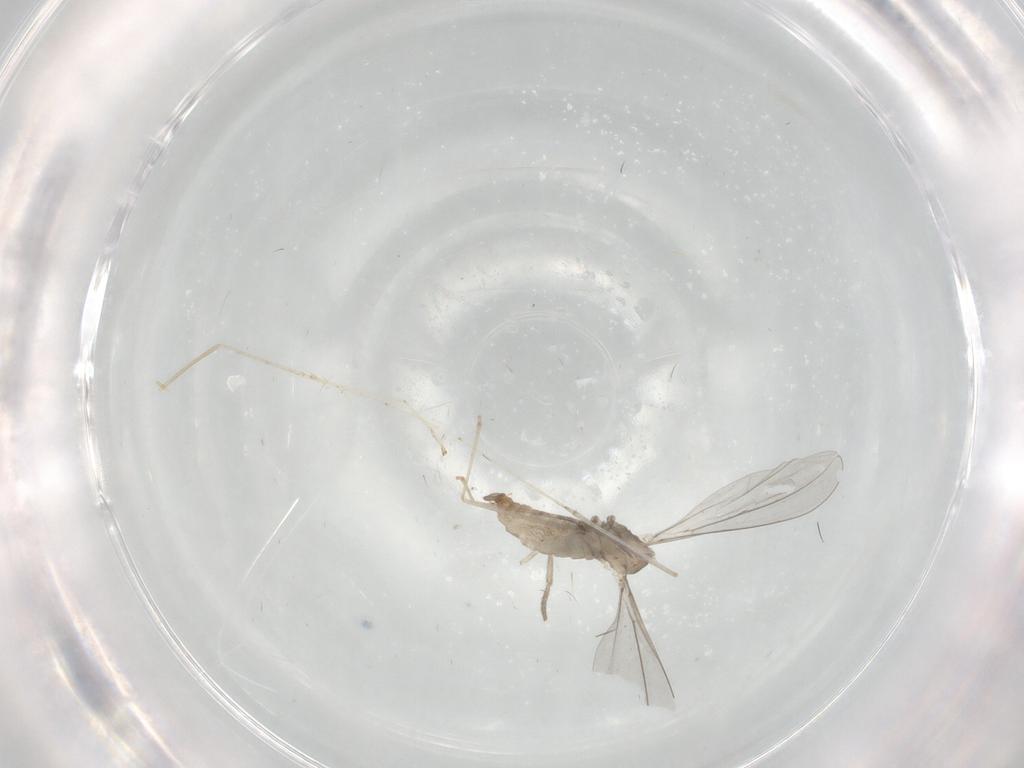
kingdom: Animalia
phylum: Arthropoda
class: Insecta
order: Diptera
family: Cecidomyiidae
